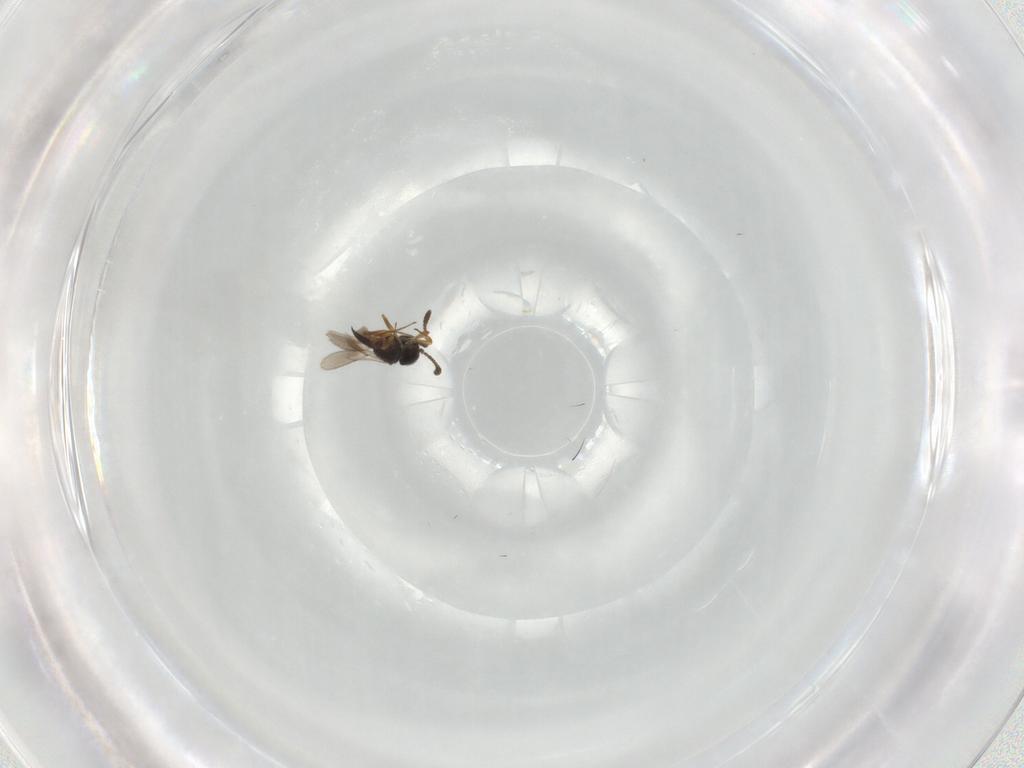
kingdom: Animalia
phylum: Arthropoda
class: Insecta
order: Hymenoptera
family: Scelionidae
